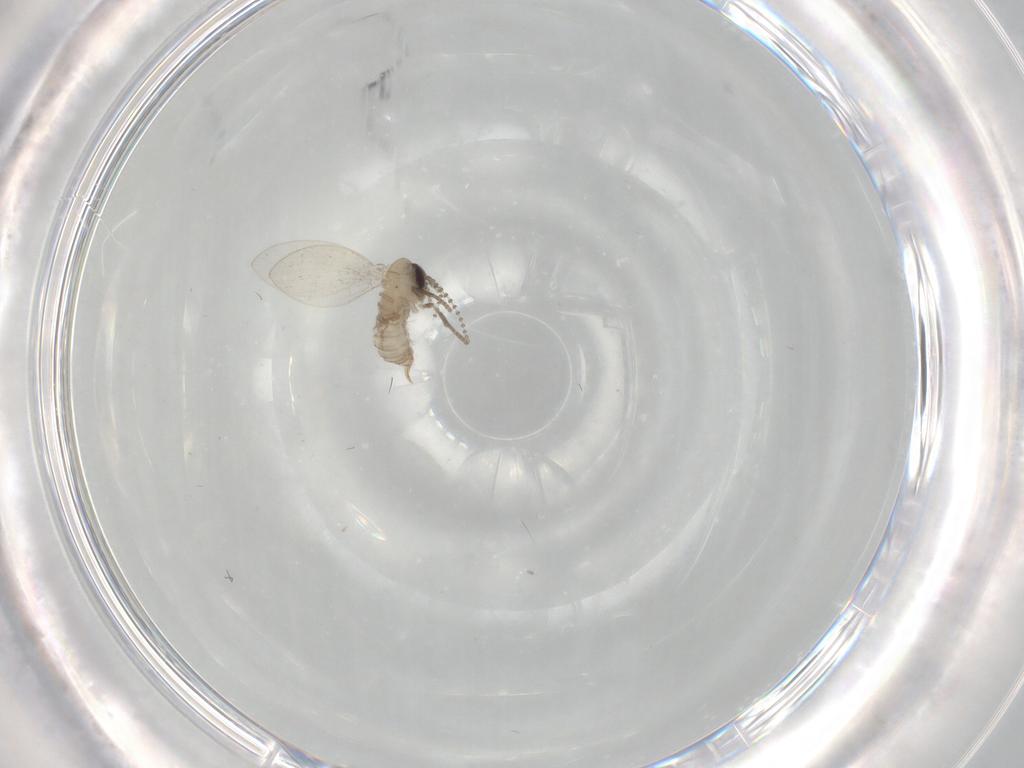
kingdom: Animalia
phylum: Arthropoda
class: Insecta
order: Diptera
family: Psychodidae
